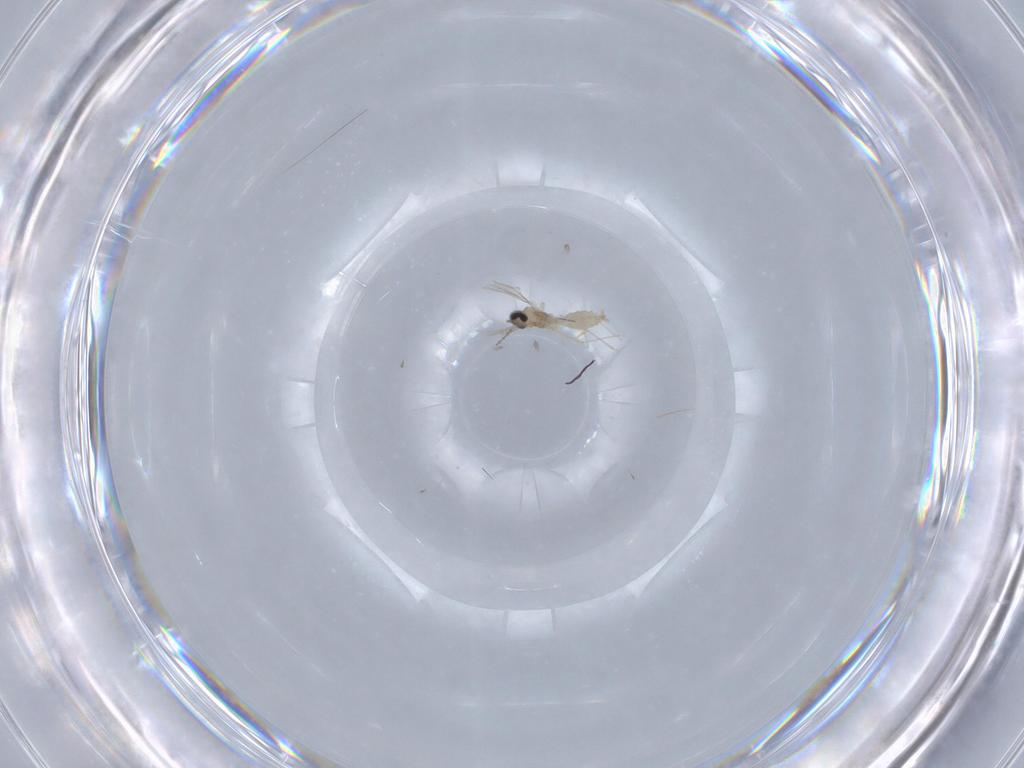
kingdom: Animalia
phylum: Arthropoda
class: Insecta
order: Diptera
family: Cecidomyiidae
